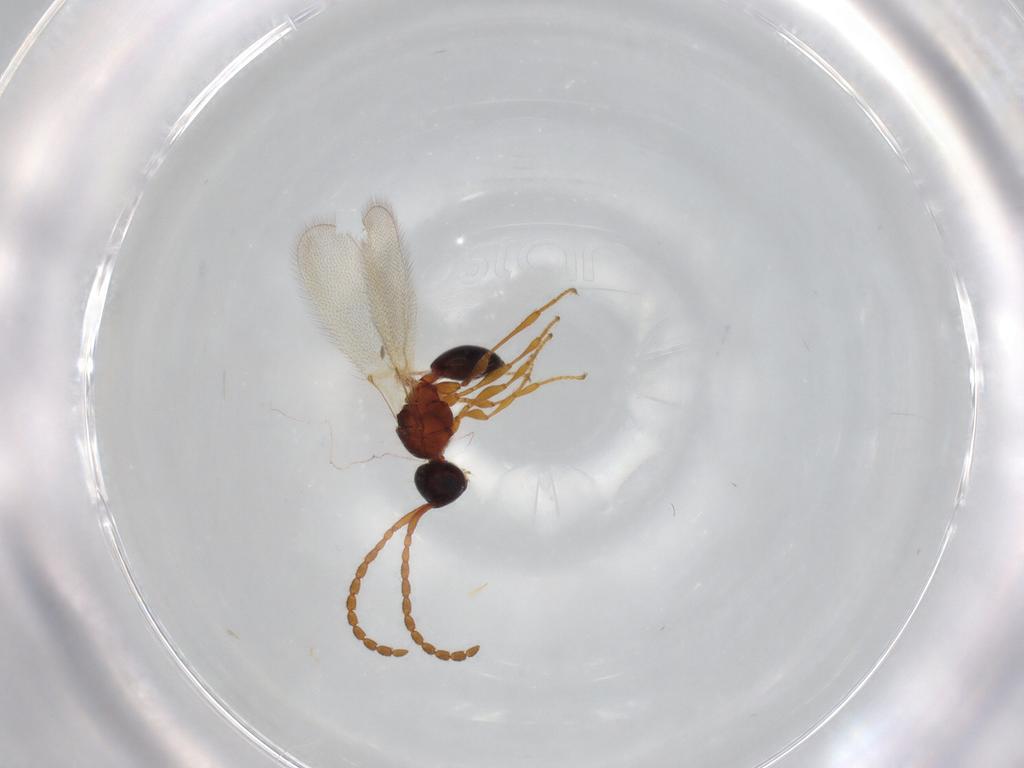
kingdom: Animalia
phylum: Arthropoda
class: Insecta
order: Hymenoptera
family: Diapriidae
